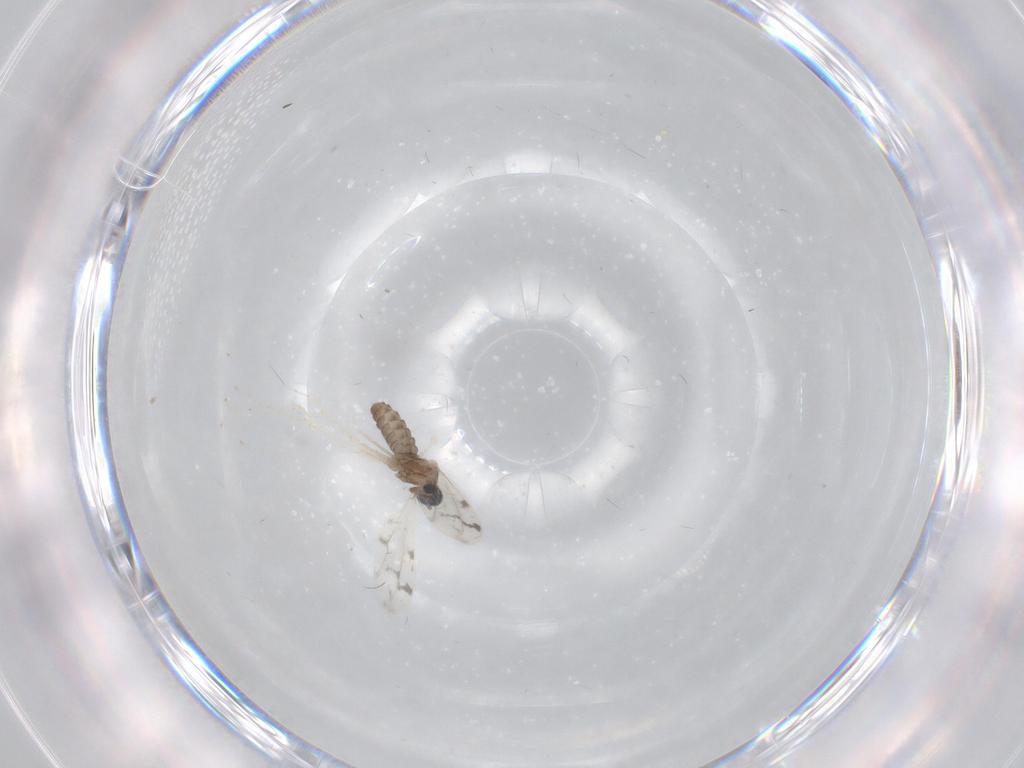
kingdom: Animalia
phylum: Arthropoda
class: Insecta
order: Diptera
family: Cecidomyiidae
